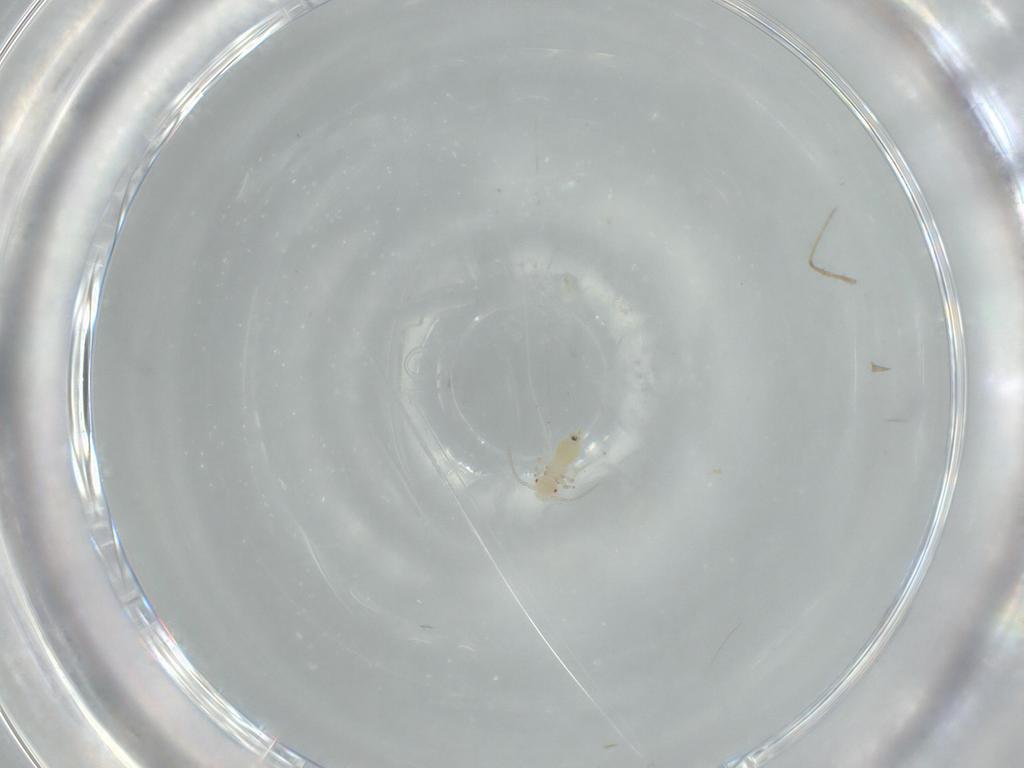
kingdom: Animalia
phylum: Arthropoda
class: Insecta
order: Psocodea
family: Caeciliusidae
